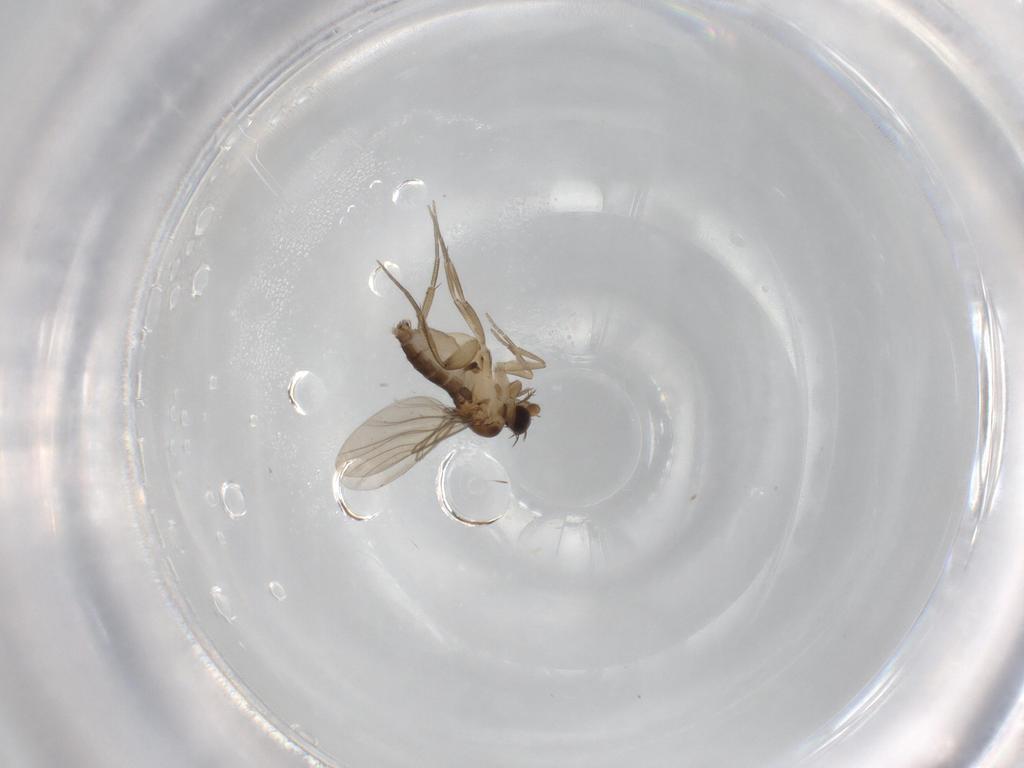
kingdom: Animalia
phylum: Arthropoda
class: Insecta
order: Diptera
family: Phoridae
